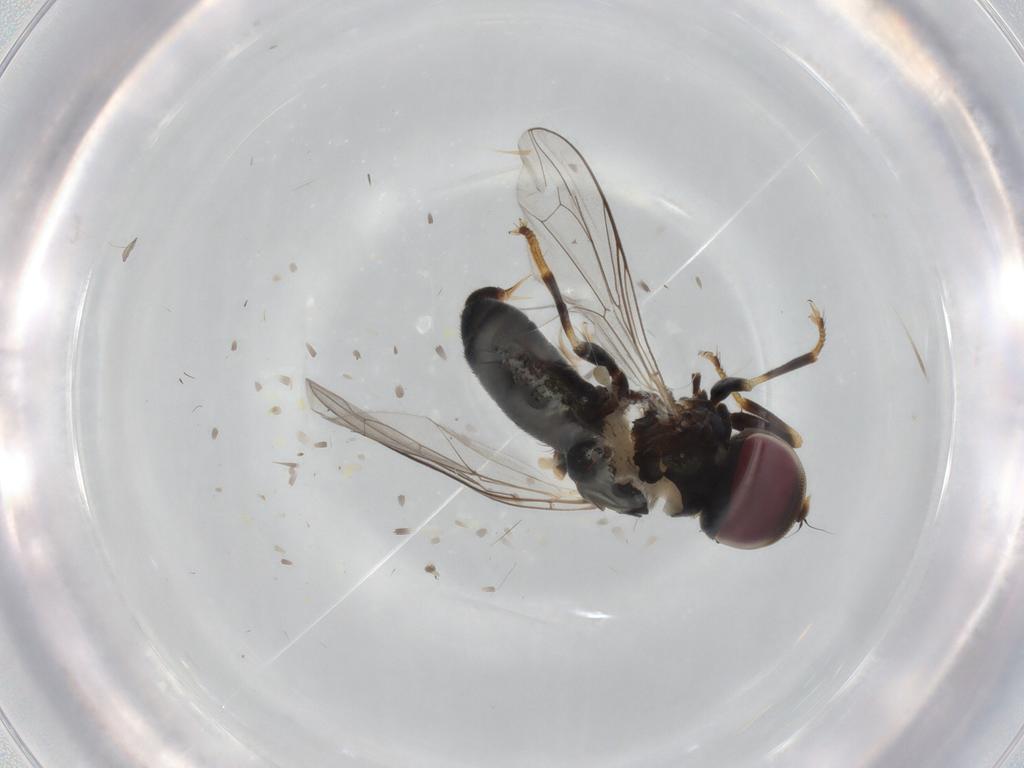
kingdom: Animalia
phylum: Arthropoda
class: Insecta
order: Diptera
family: Pipunculidae
